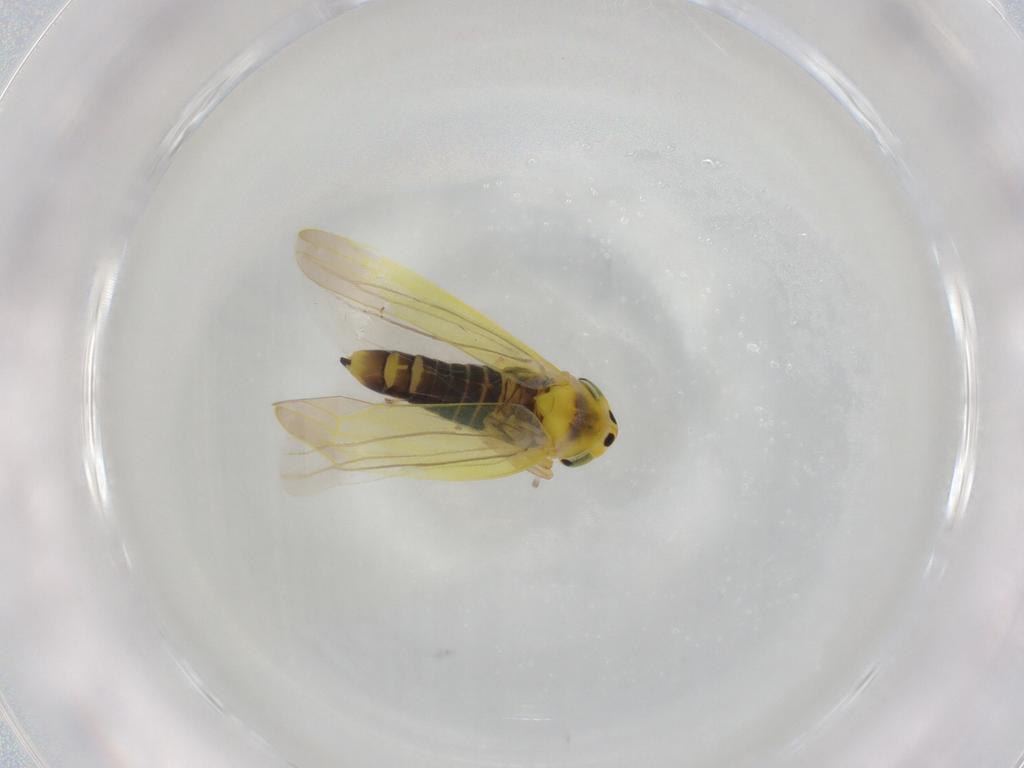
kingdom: Animalia
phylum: Arthropoda
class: Insecta
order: Hemiptera
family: Cicadellidae
